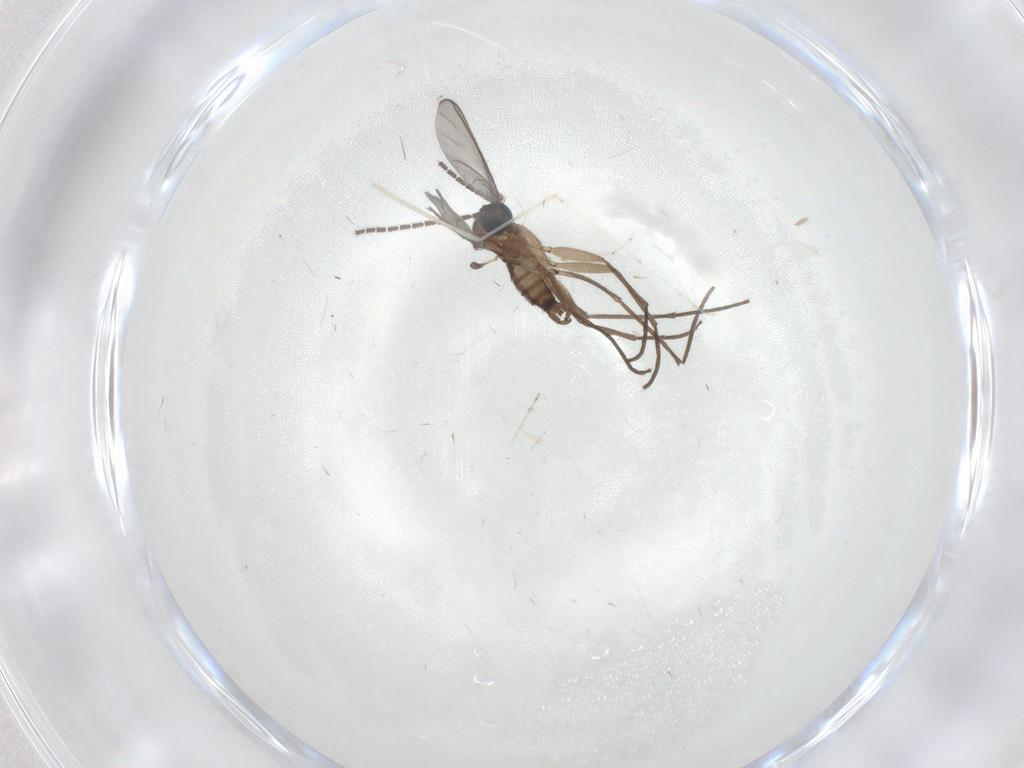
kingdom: Animalia
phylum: Arthropoda
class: Insecta
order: Diptera
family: Sciaridae
